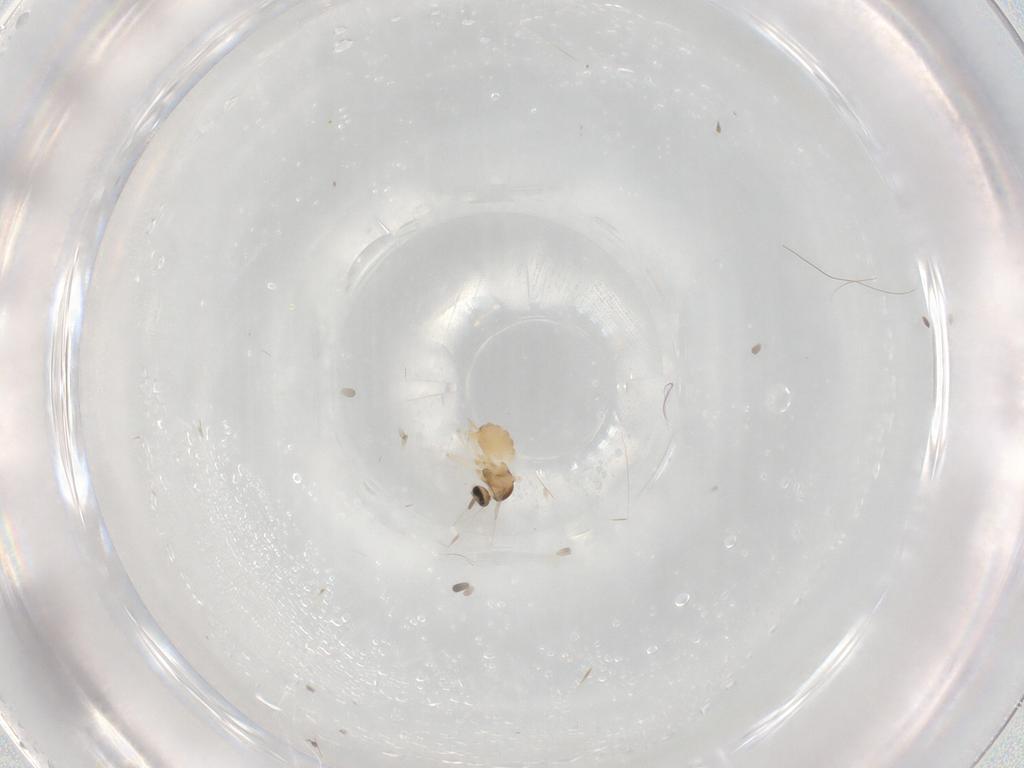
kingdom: Animalia
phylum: Arthropoda
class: Insecta
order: Diptera
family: Cecidomyiidae
